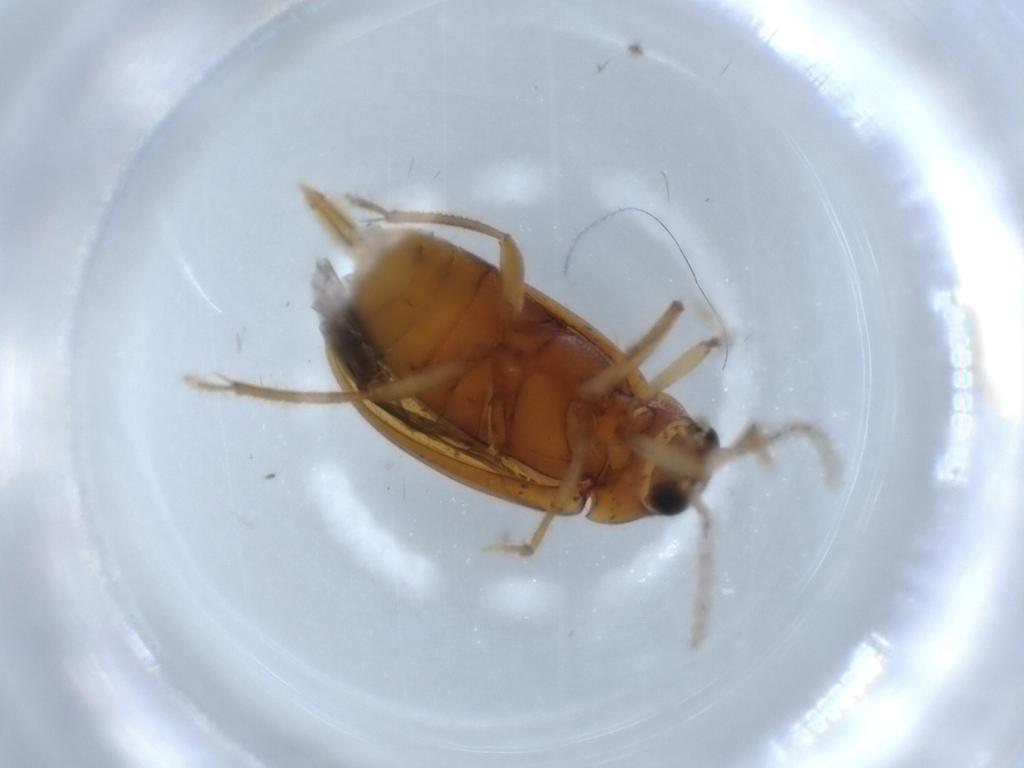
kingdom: Animalia
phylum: Arthropoda
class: Insecta
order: Coleoptera
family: Ptilodactylidae
